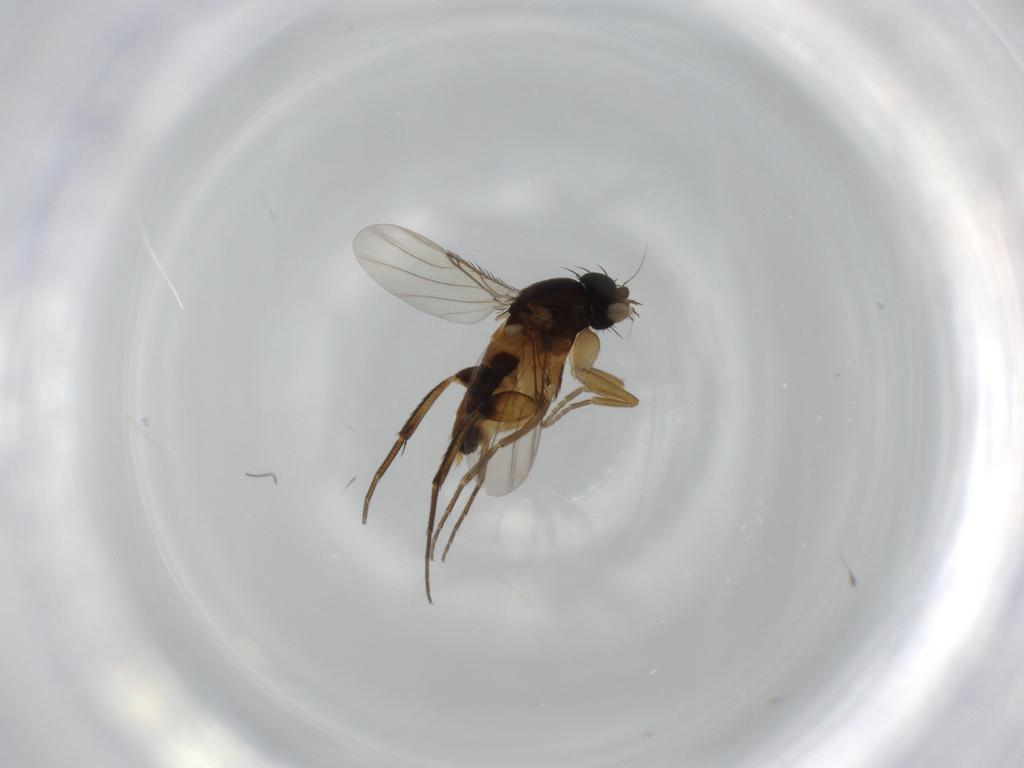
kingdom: Animalia
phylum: Arthropoda
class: Insecta
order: Diptera
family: Phoridae
